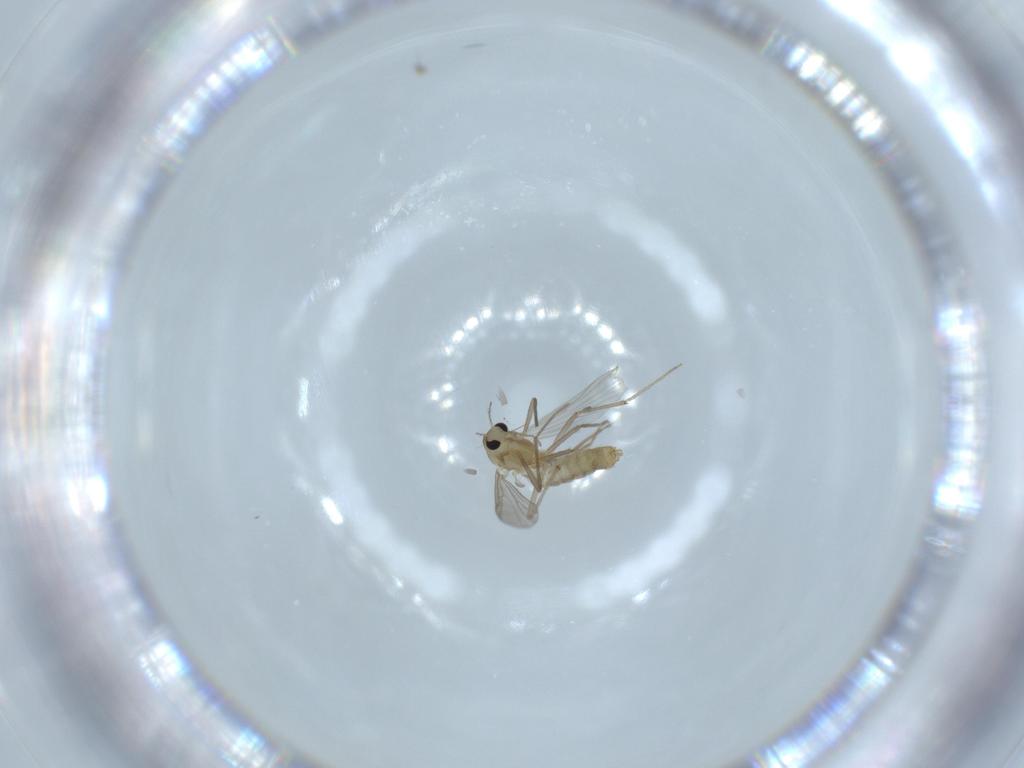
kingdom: Animalia
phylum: Arthropoda
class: Insecta
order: Diptera
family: Chironomidae
